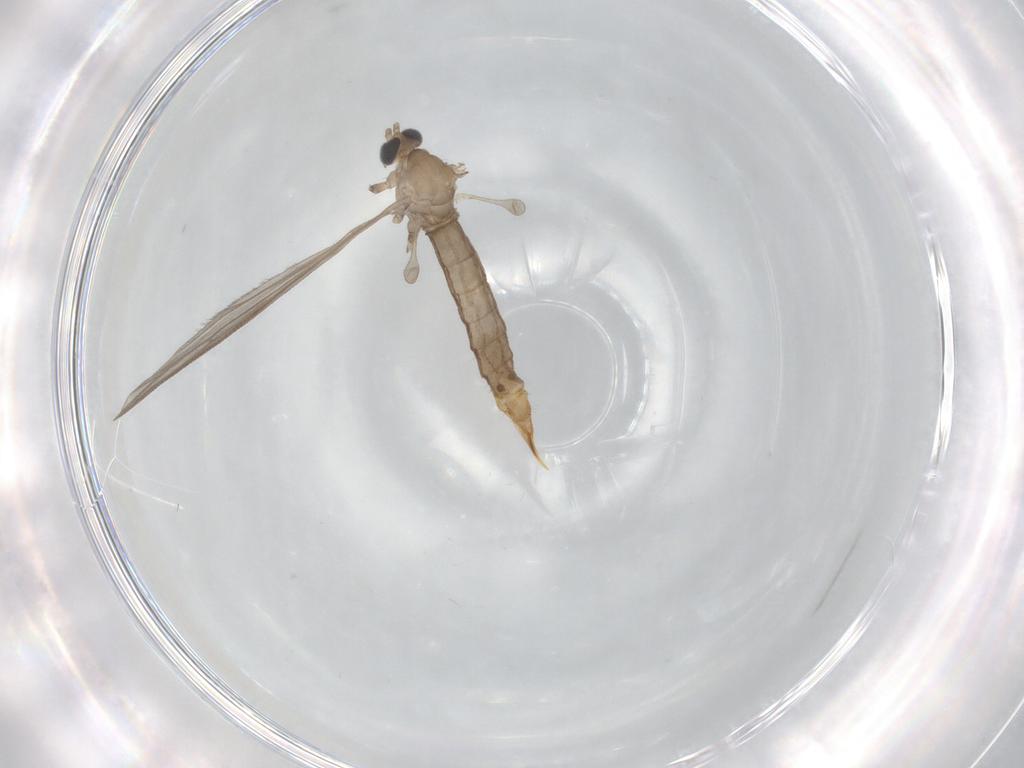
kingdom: Animalia
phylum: Arthropoda
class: Insecta
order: Diptera
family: Limoniidae
